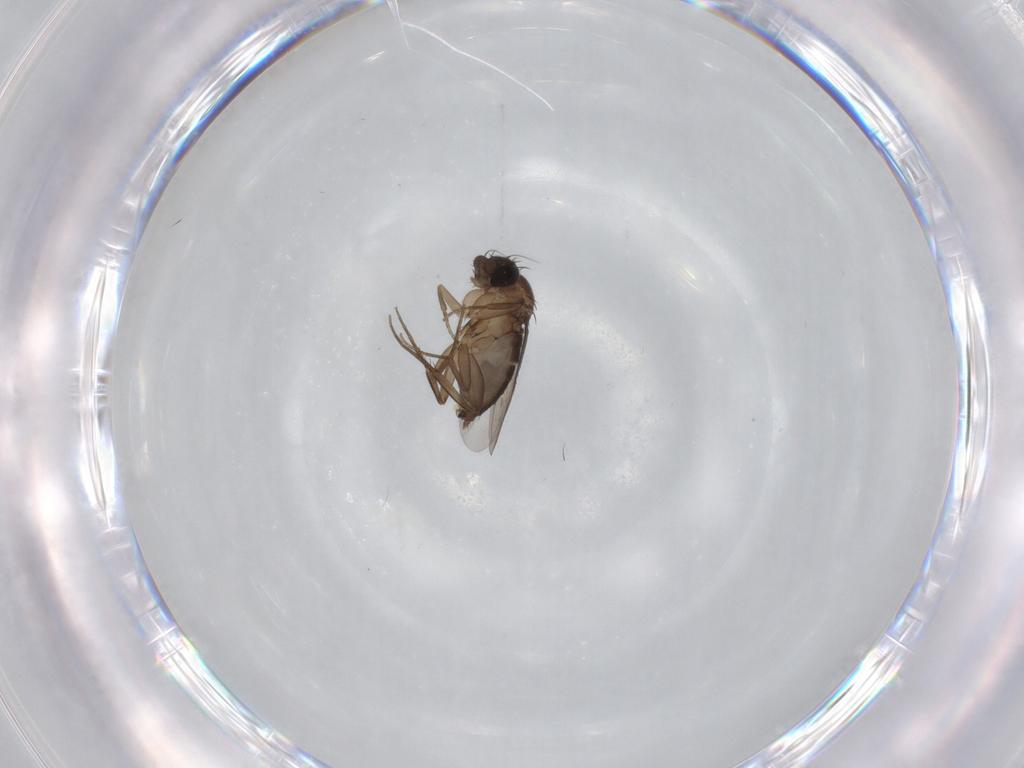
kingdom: Animalia
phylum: Arthropoda
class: Insecta
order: Diptera
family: Phoridae
